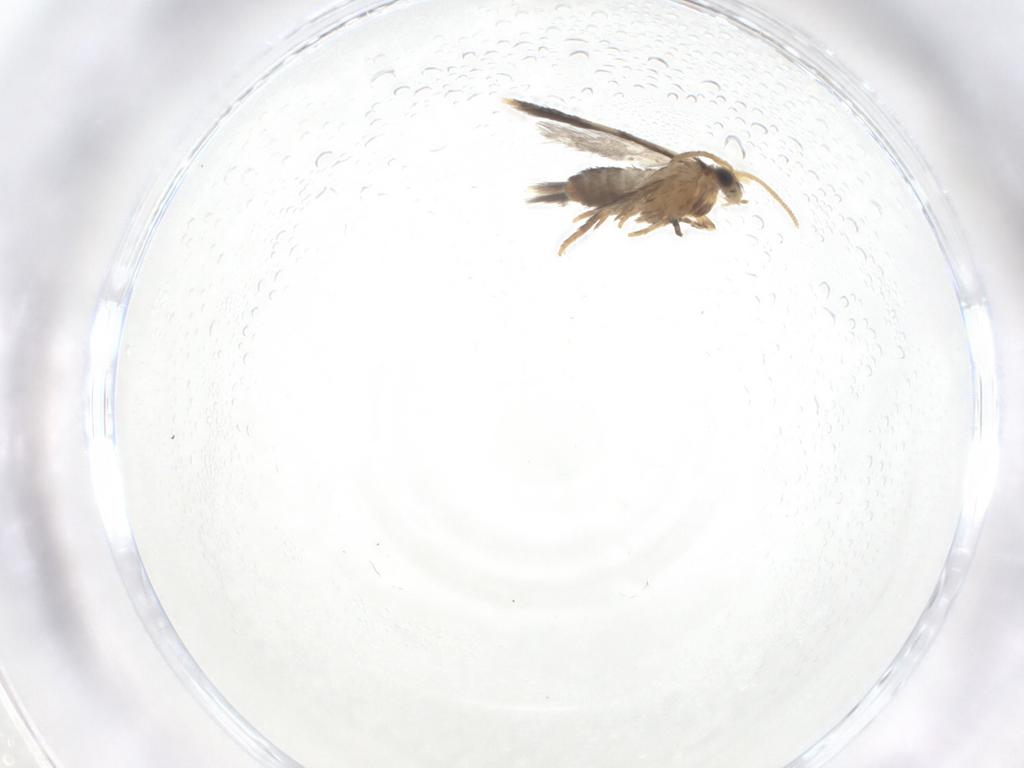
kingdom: Animalia
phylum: Arthropoda
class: Insecta
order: Lepidoptera
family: Nepticulidae
